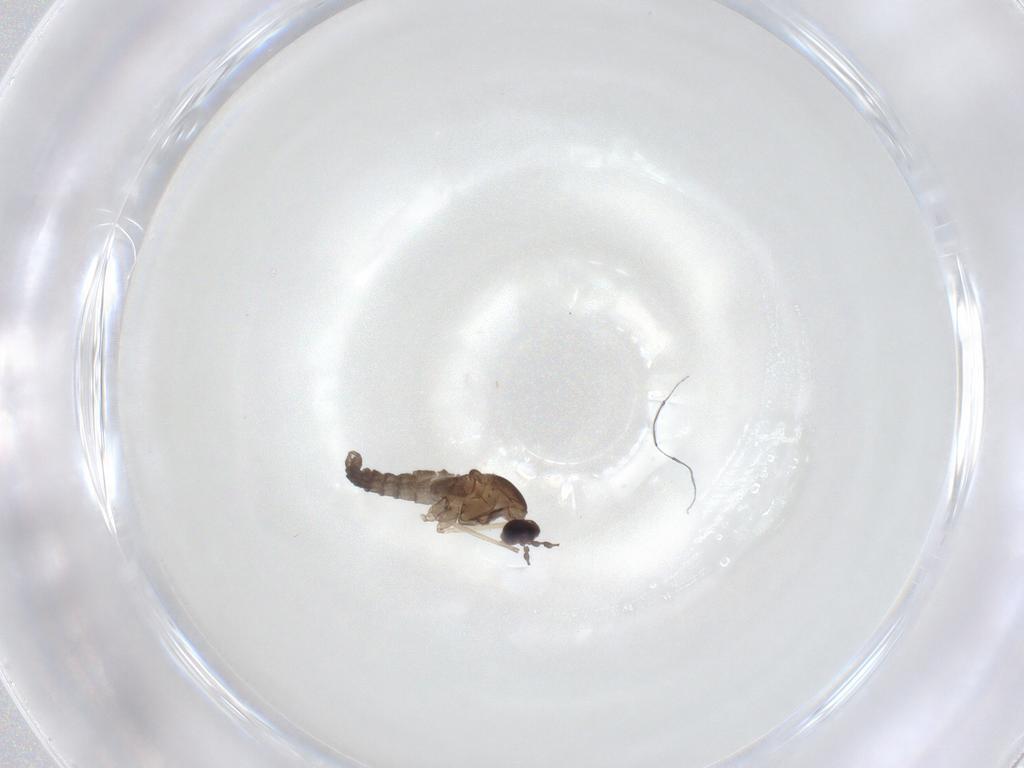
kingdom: Animalia
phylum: Arthropoda
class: Insecta
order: Diptera
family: Cecidomyiidae
